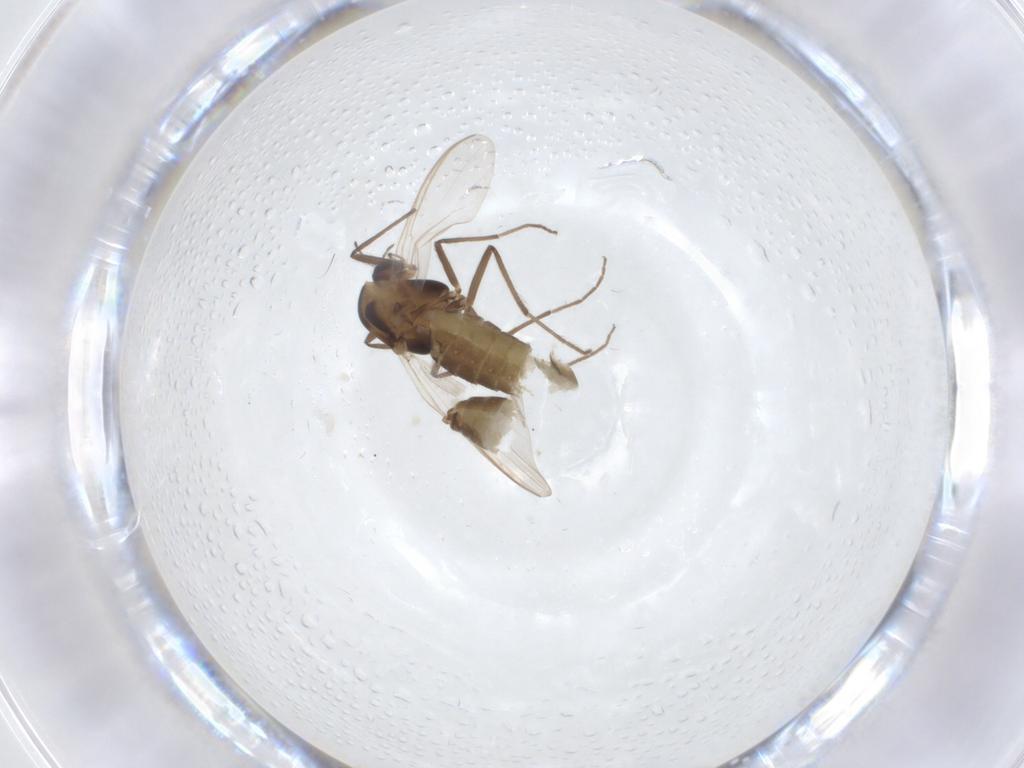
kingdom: Animalia
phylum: Arthropoda
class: Insecta
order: Diptera
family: Chironomidae
